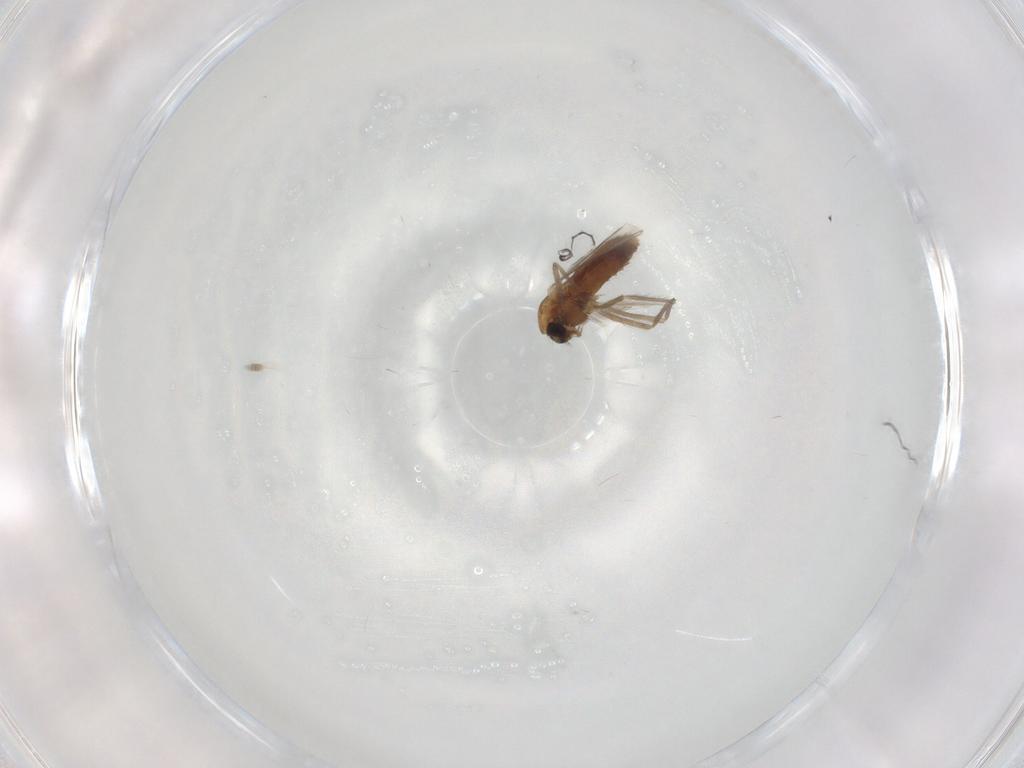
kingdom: Animalia
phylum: Arthropoda
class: Insecta
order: Diptera
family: Chironomidae
